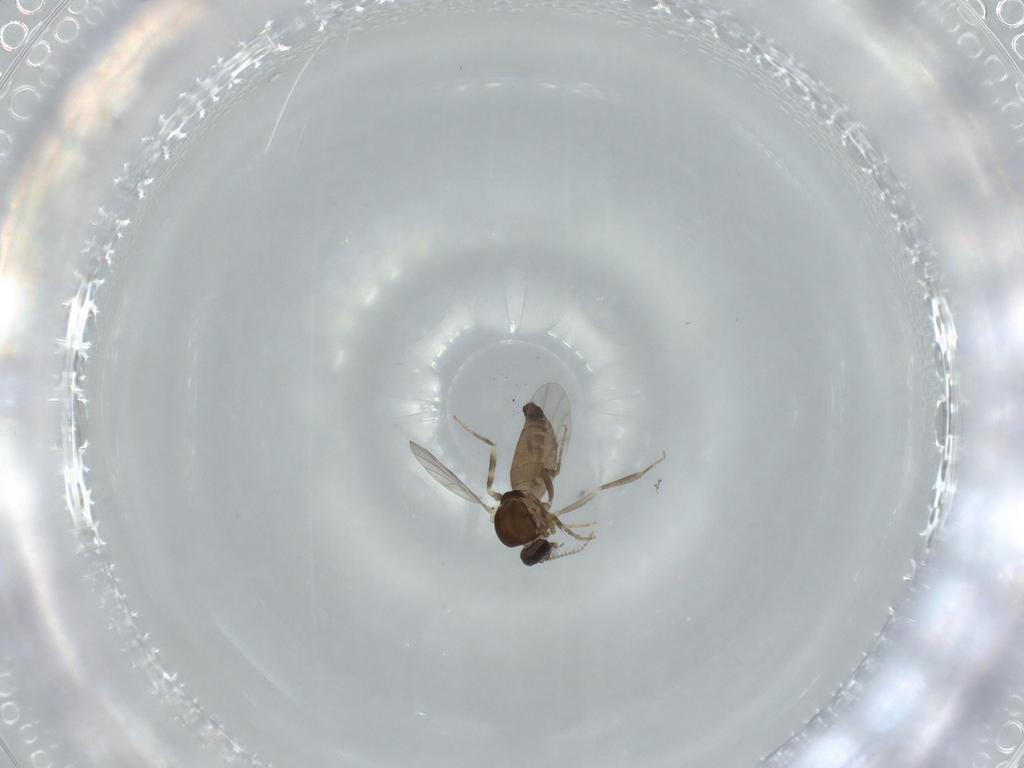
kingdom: Animalia
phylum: Arthropoda
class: Insecta
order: Diptera
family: Ceratopogonidae
